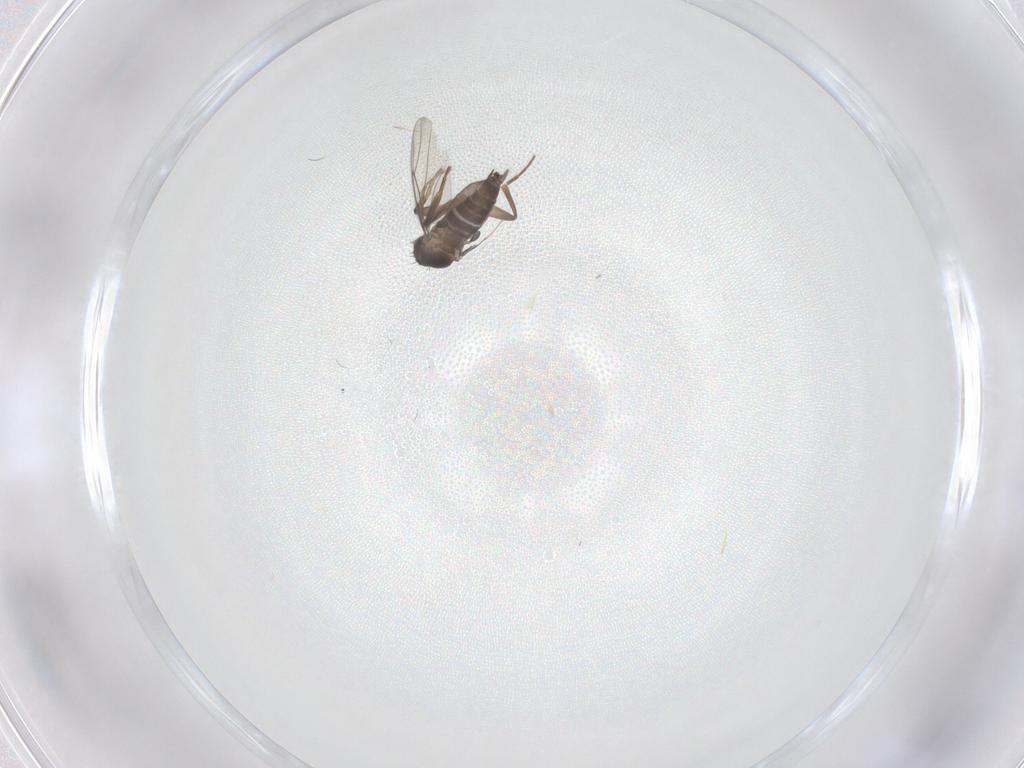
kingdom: Animalia
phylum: Arthropoda
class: Insecta
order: Diptera
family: Phoridae
